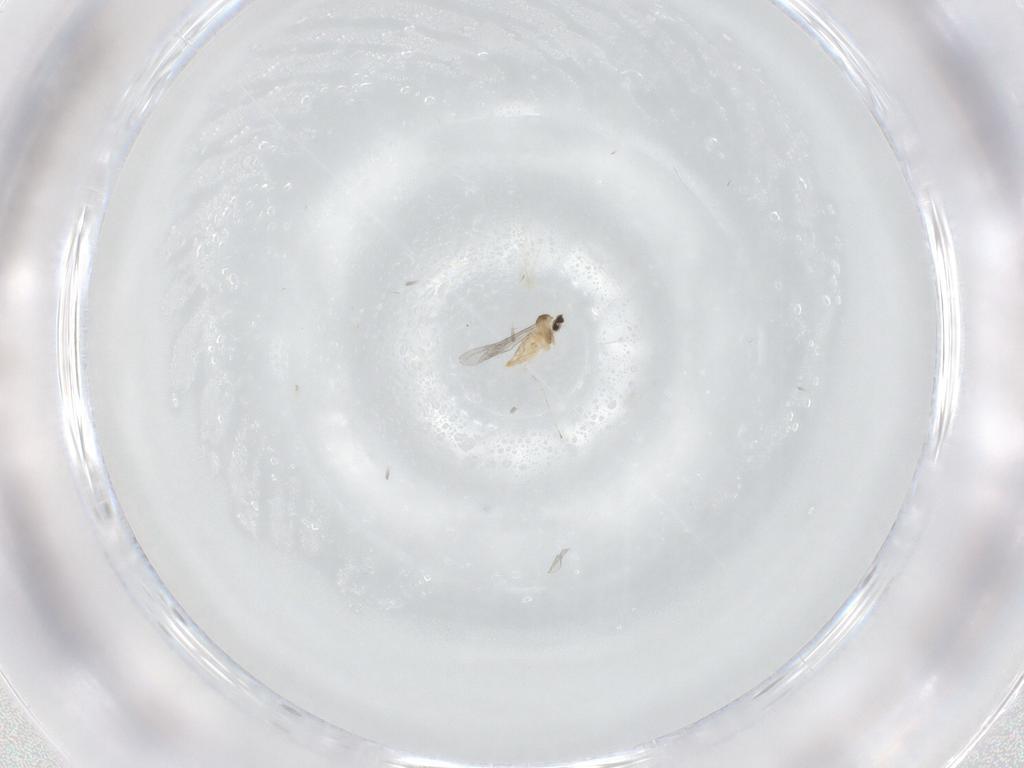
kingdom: Animalia
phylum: Arthropoda
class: Insecta
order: Diptera
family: Cecidomyiidae
